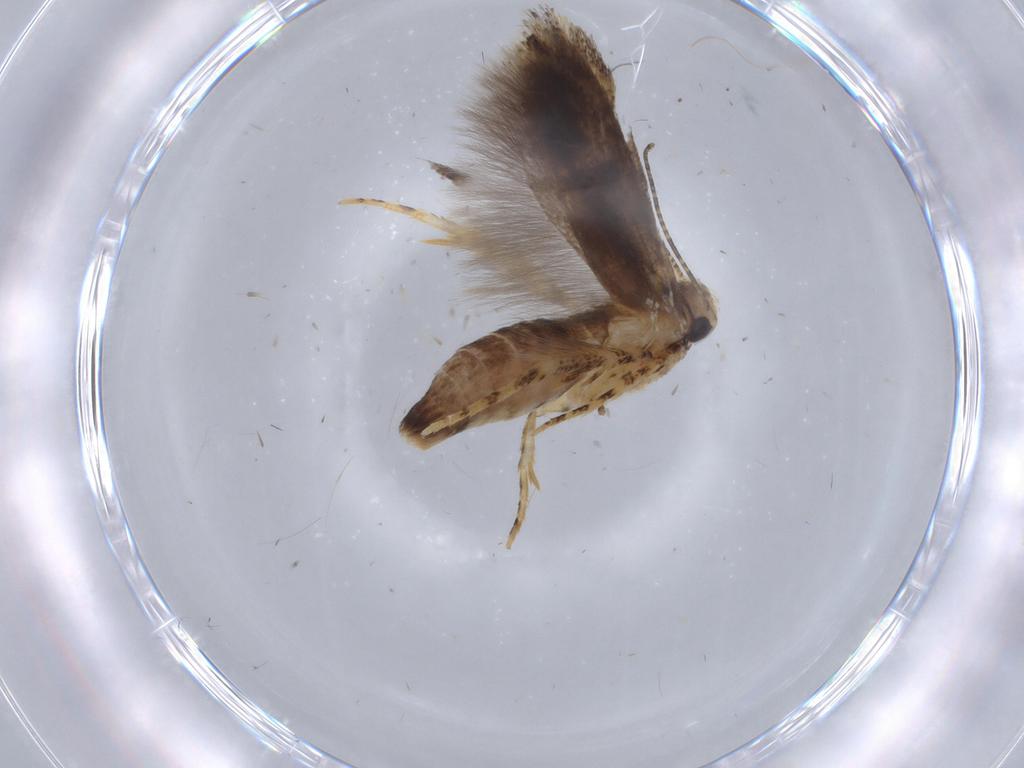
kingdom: Animalia
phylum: Arthropoda
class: Insecta
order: Lepidoptera
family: Gelechiidae
